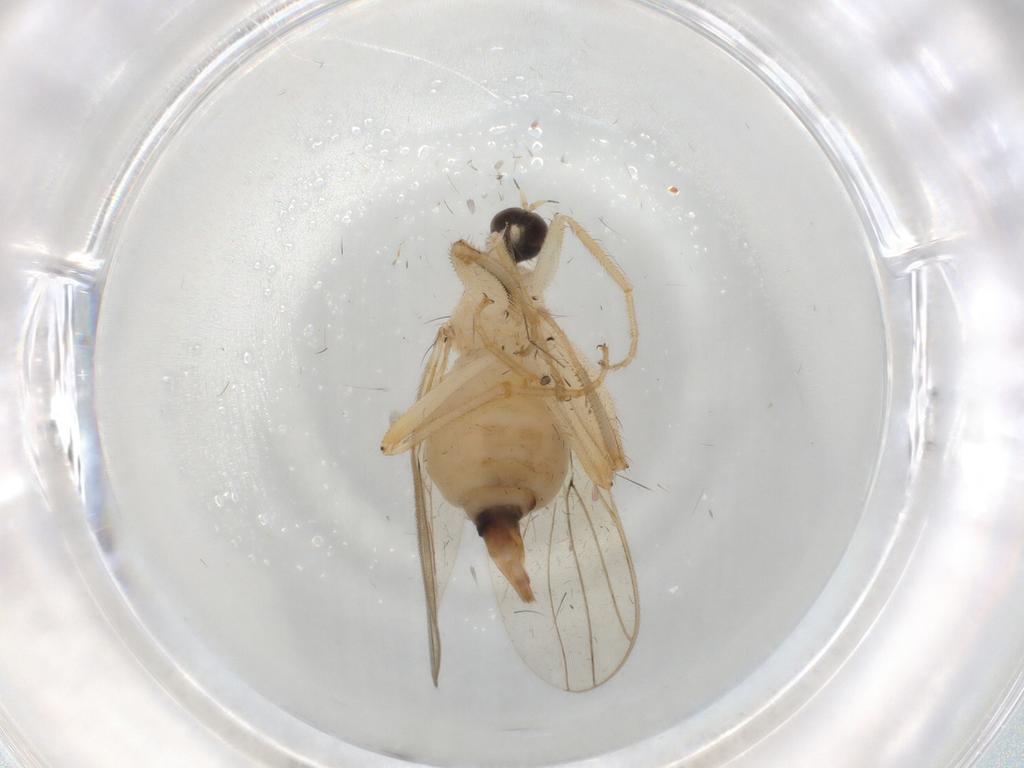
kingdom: Animalia
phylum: Arthropoda
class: Insecta
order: Diptera
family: Hybotidae
